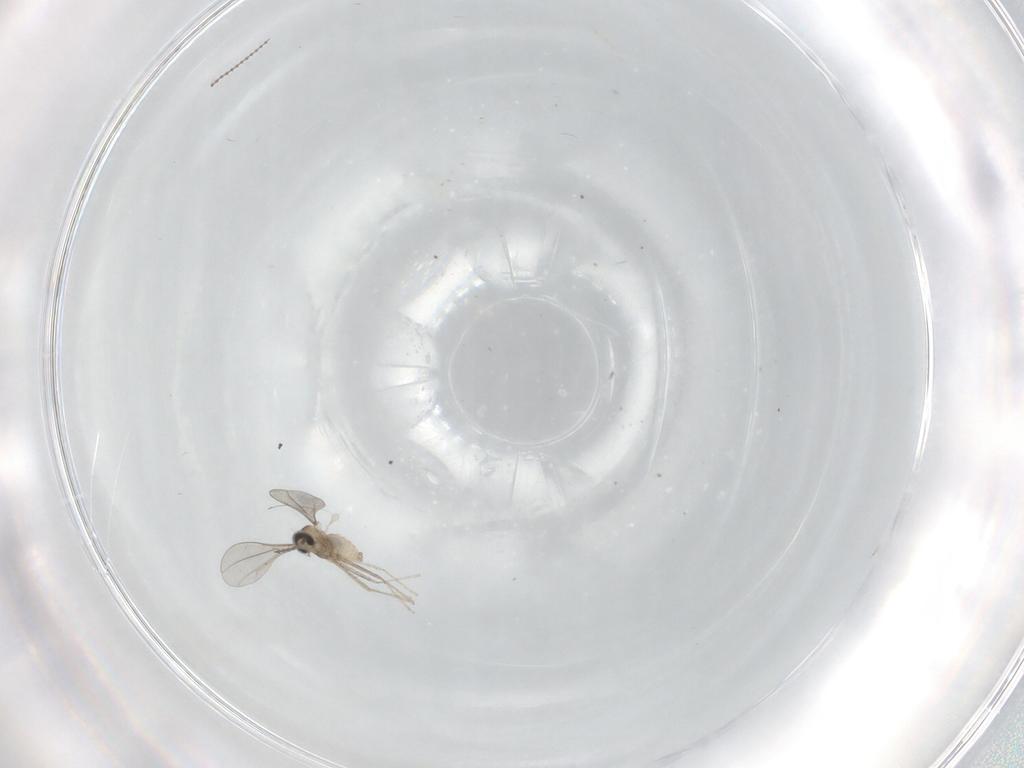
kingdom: Animalia
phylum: Arthropoda
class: Insecta
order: Diptera
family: Cecidomyiidae
